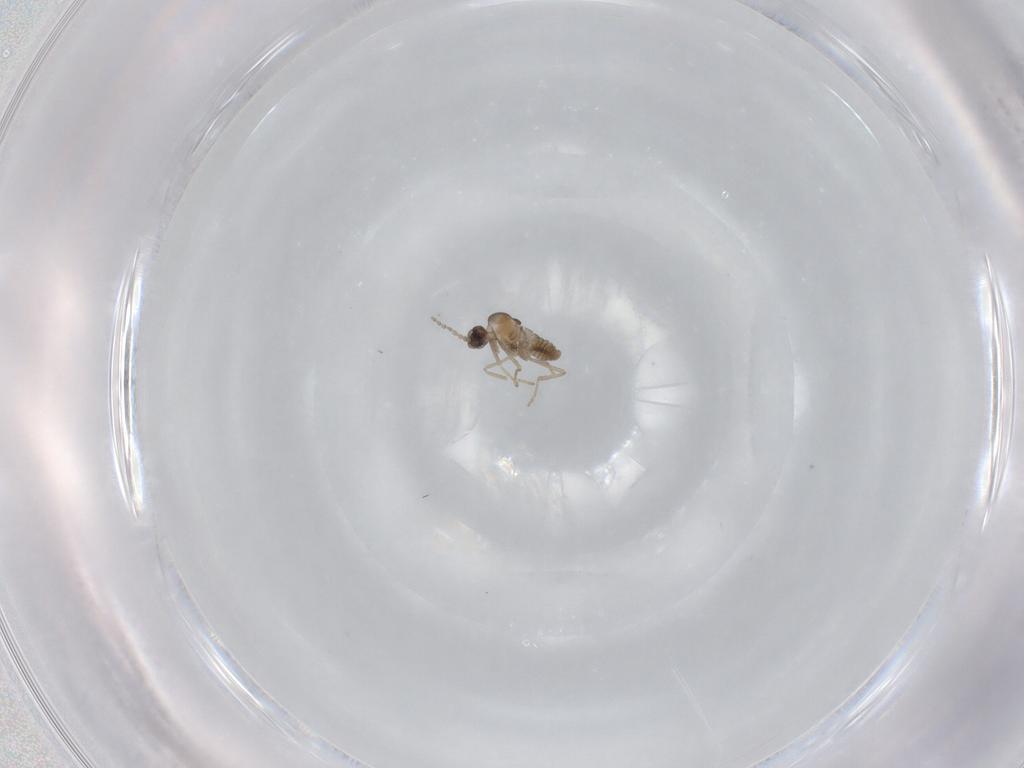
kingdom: Animalia
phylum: Arthropoda
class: Insecta
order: Diptera
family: Cecidomyiidae
